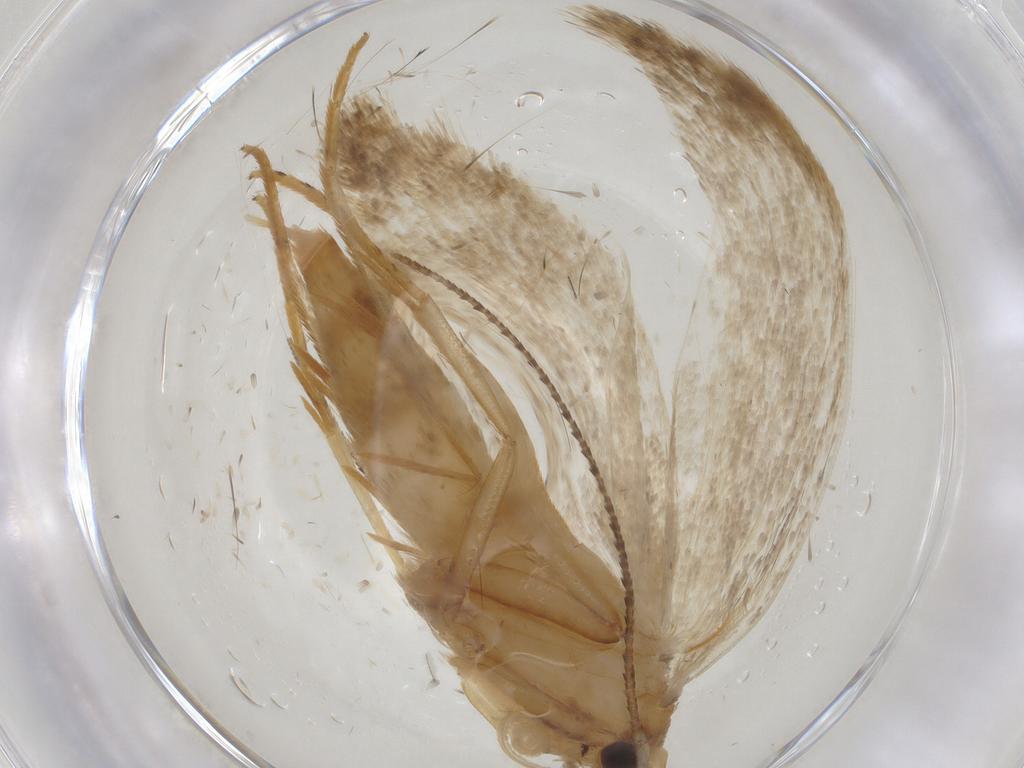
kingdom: Animalia
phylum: Arthropoda
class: Insecta
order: Lepidoptera
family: Gelechiidae
